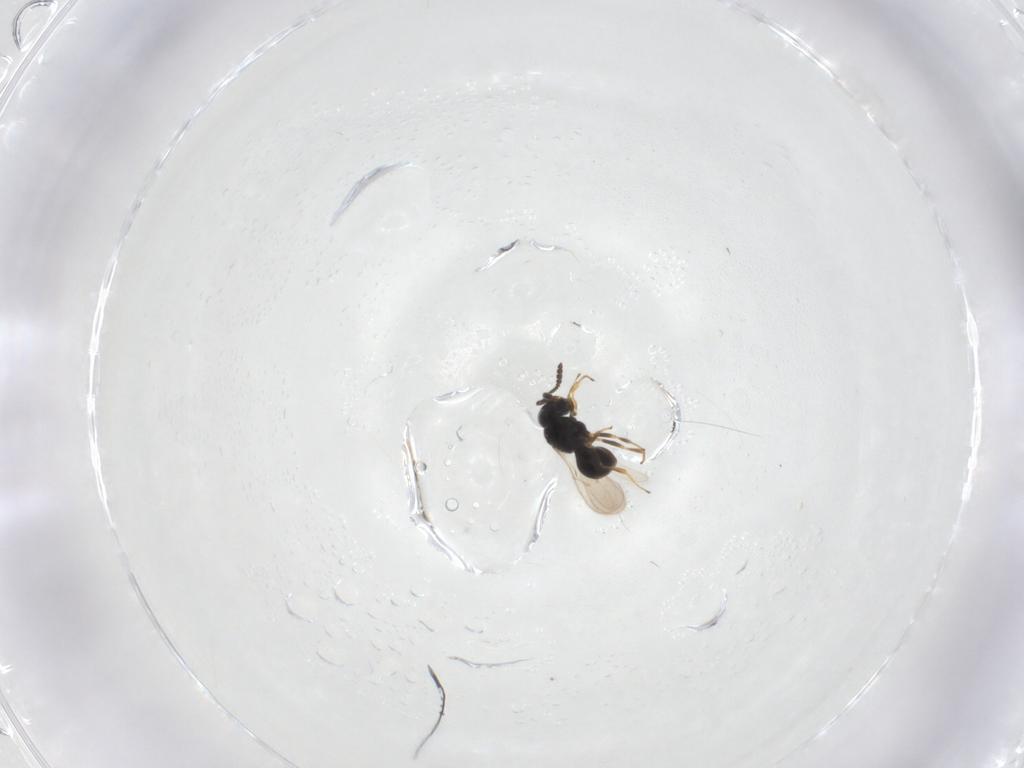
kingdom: Animalia
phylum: Arthropoda
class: Insecta
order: Hymenoptera
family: Scelionidae
